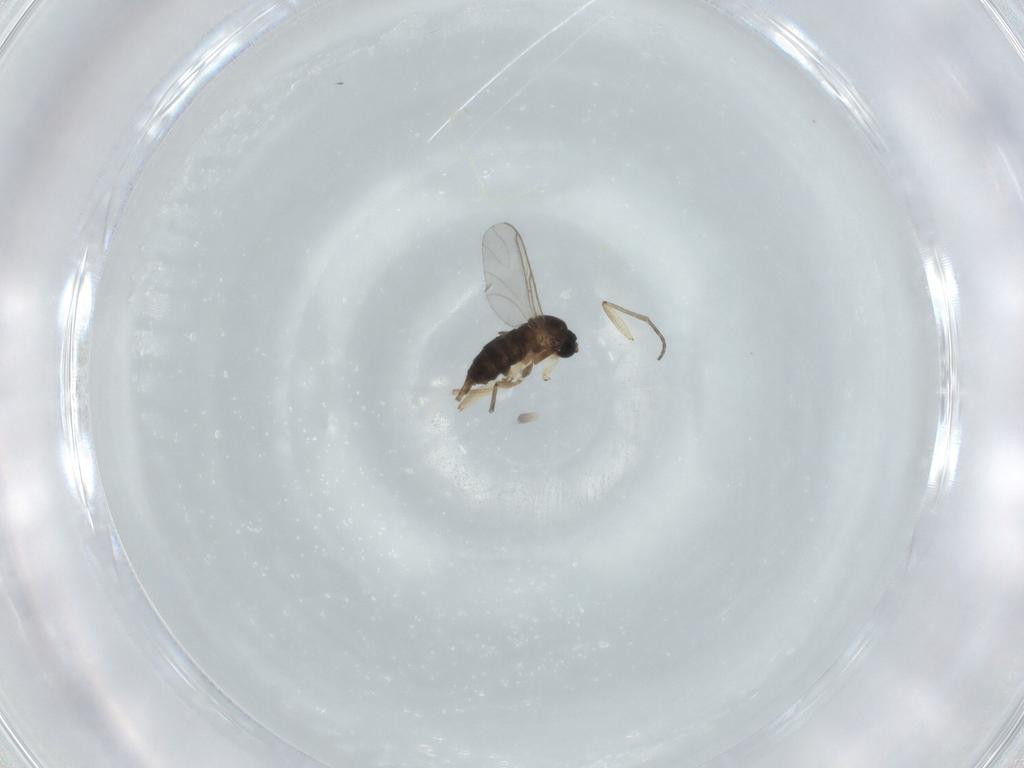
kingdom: Animalia
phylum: Arthropoda
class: Insecta
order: Diptera
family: Sciaridae
